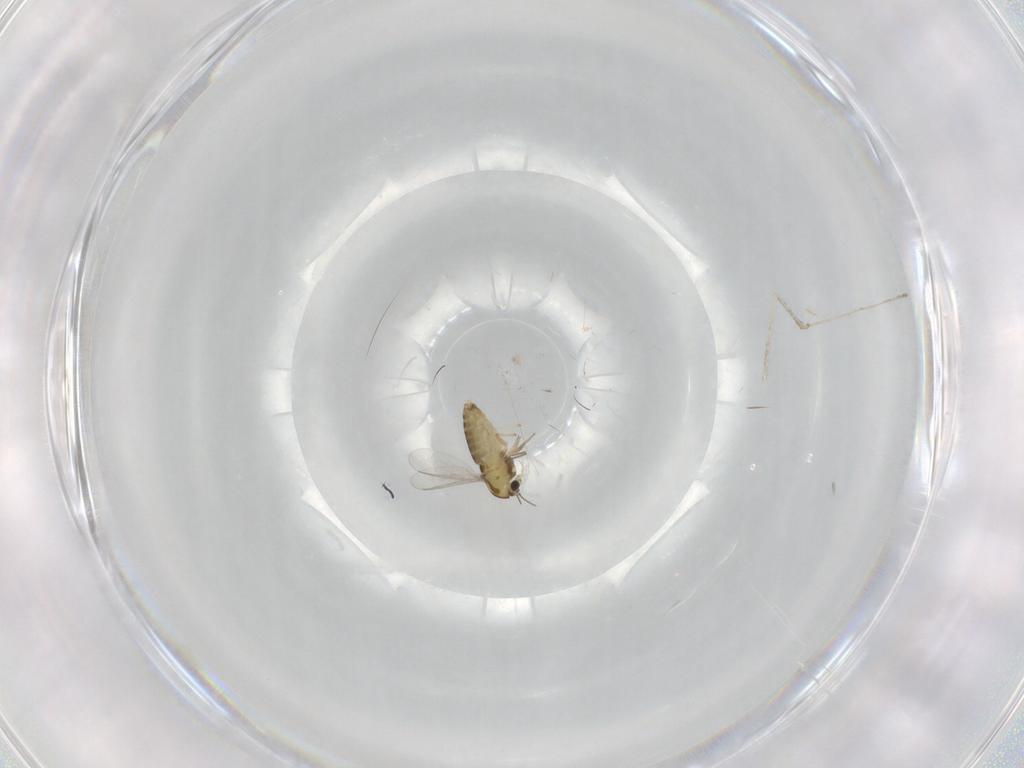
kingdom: Animalia
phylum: Arthropoda
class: Insecta
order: Diptera
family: Chironomidae
